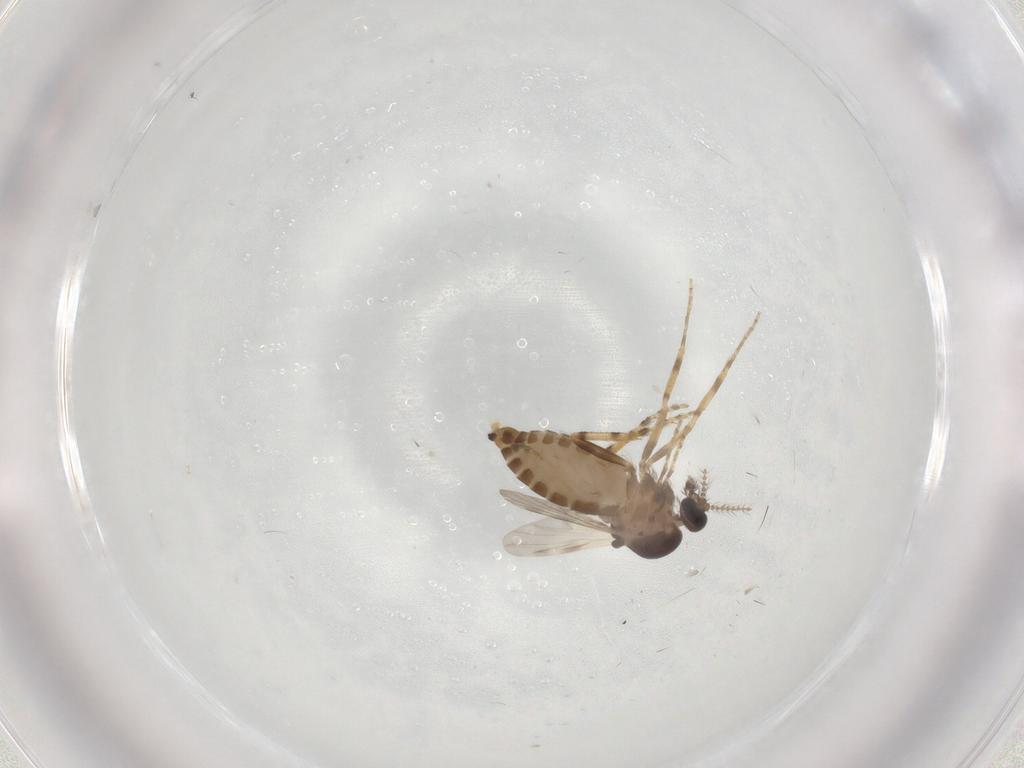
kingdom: Animalia
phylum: Arthropoda
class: Insecta
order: Diptera
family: Ceratopogonidae
